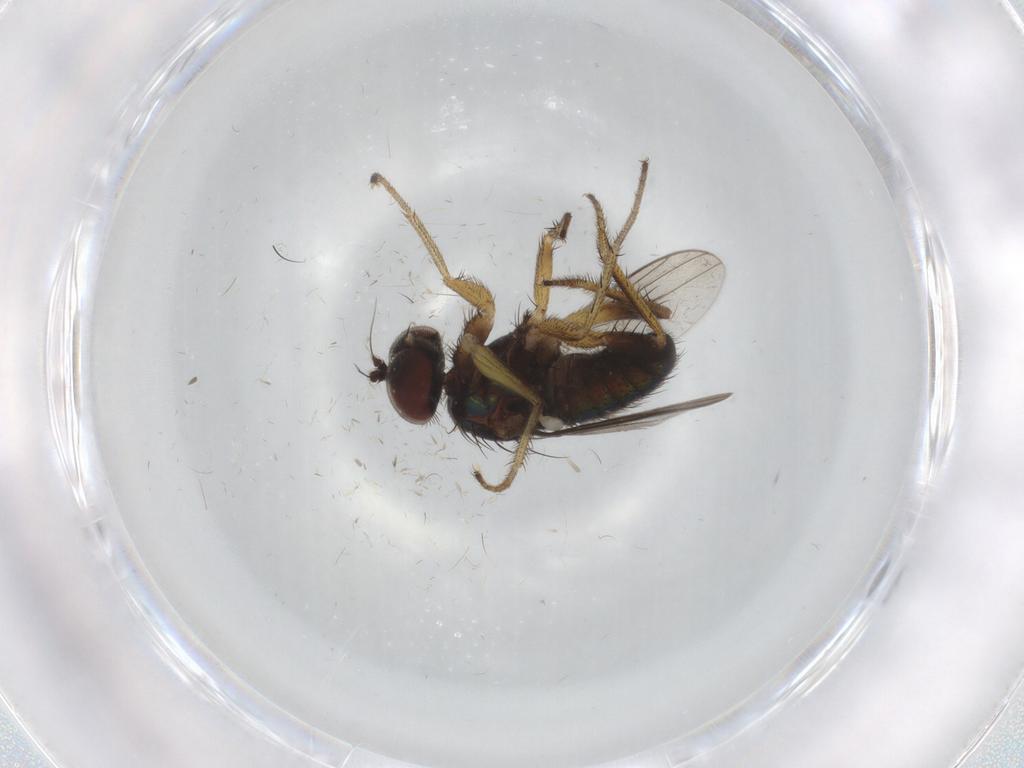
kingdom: Animalia
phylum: Arthropoda
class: Insecta
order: Diptera
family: Dolichopodidae
